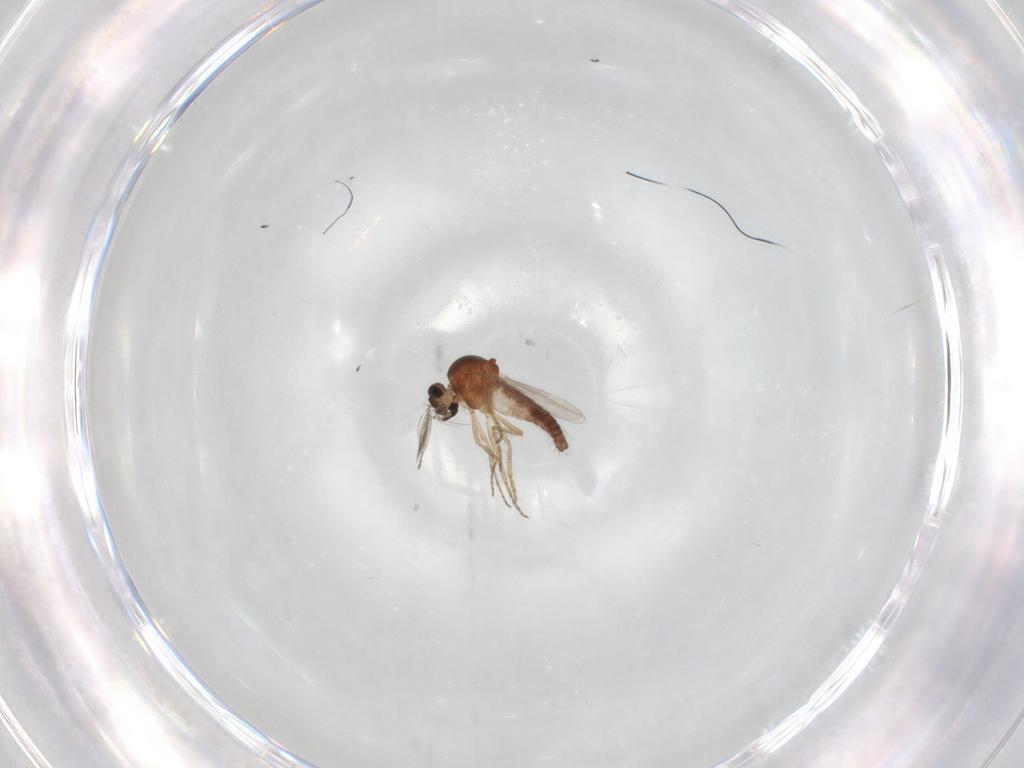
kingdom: Animalia
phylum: Arthropoda
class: Insecta
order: Diptera
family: Ceratopogonidae
